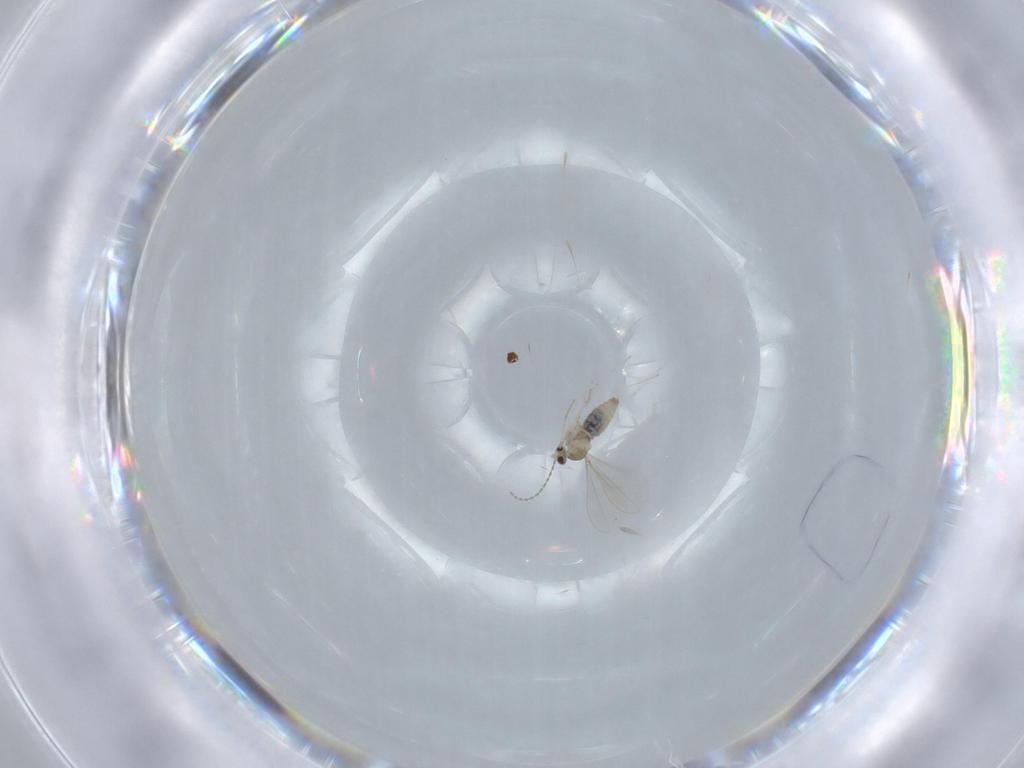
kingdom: Animalia
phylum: Arthropoda
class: Insecta
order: Diptera
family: Cecidomyiidae
